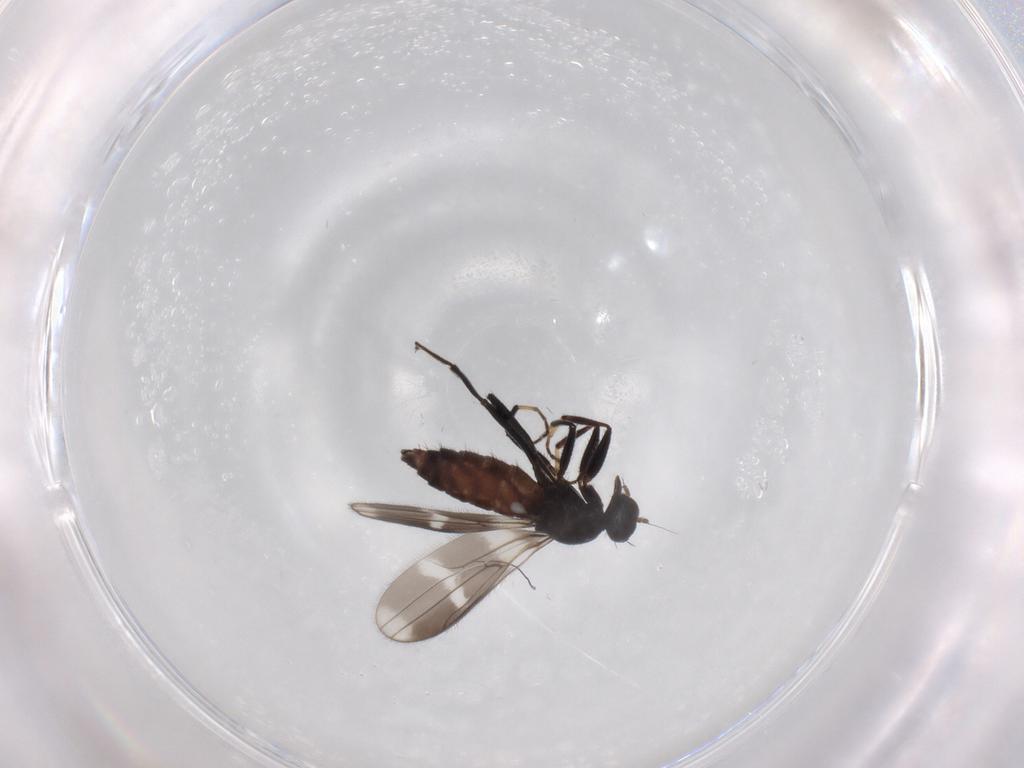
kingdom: Animalia
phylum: Arthropoda
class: Insecta
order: Diptera
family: Hybotidae
